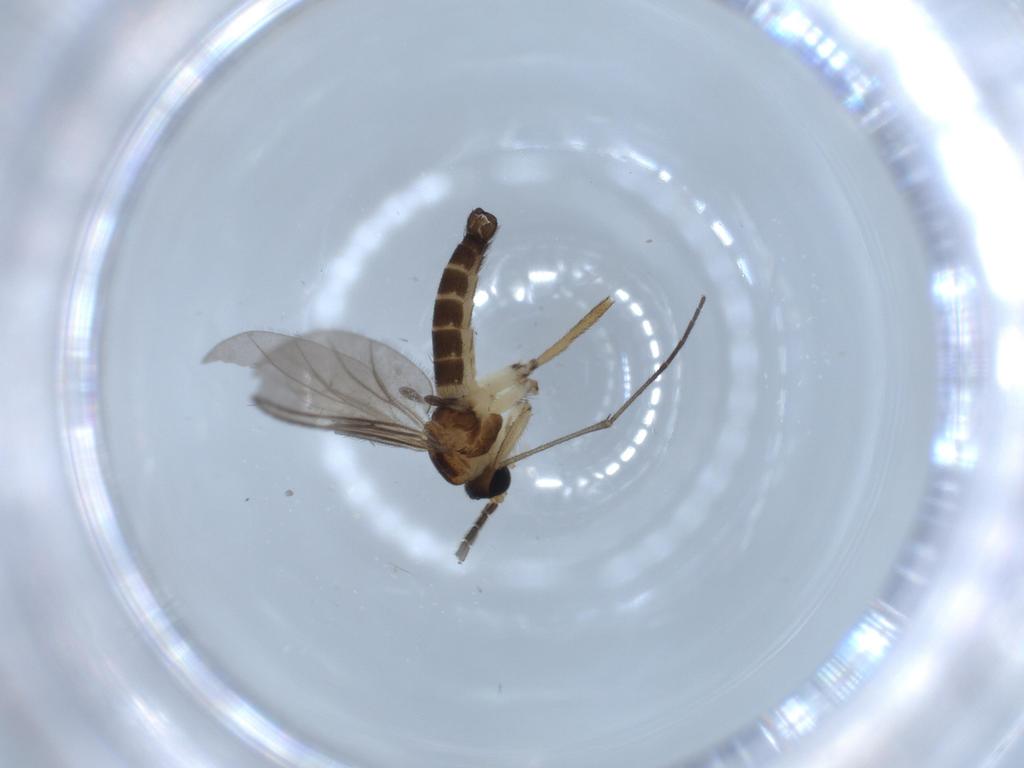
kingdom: Animalia
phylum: Arthropoda
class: Insecta
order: Diptera
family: Sciaridae
